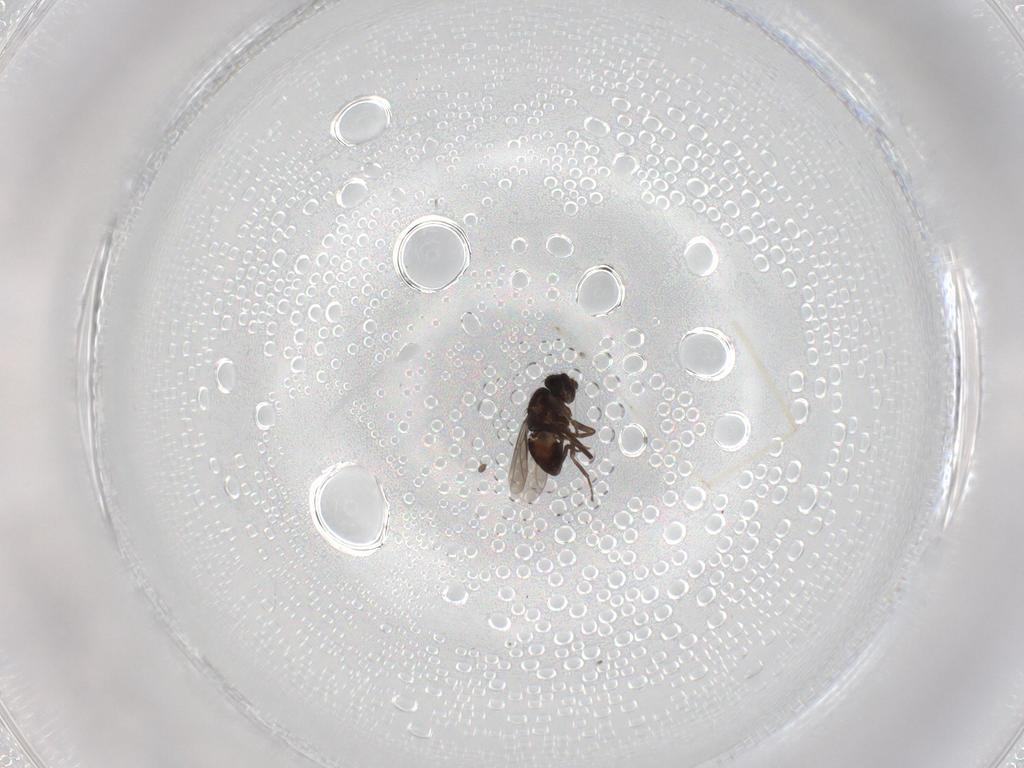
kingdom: Animalia
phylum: Arthropoda
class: Insecta
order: Diptera
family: Sphaeroceridae
